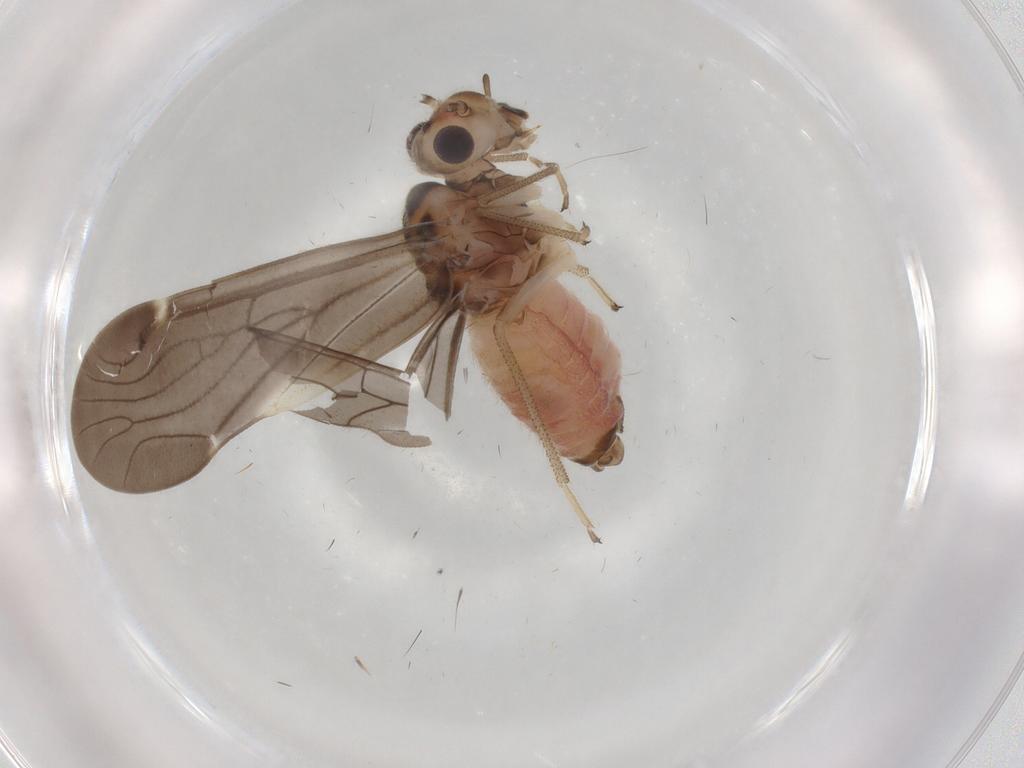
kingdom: Animalia
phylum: Arthropoda
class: Insecta
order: Psocodea
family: Lepidopsocidae
